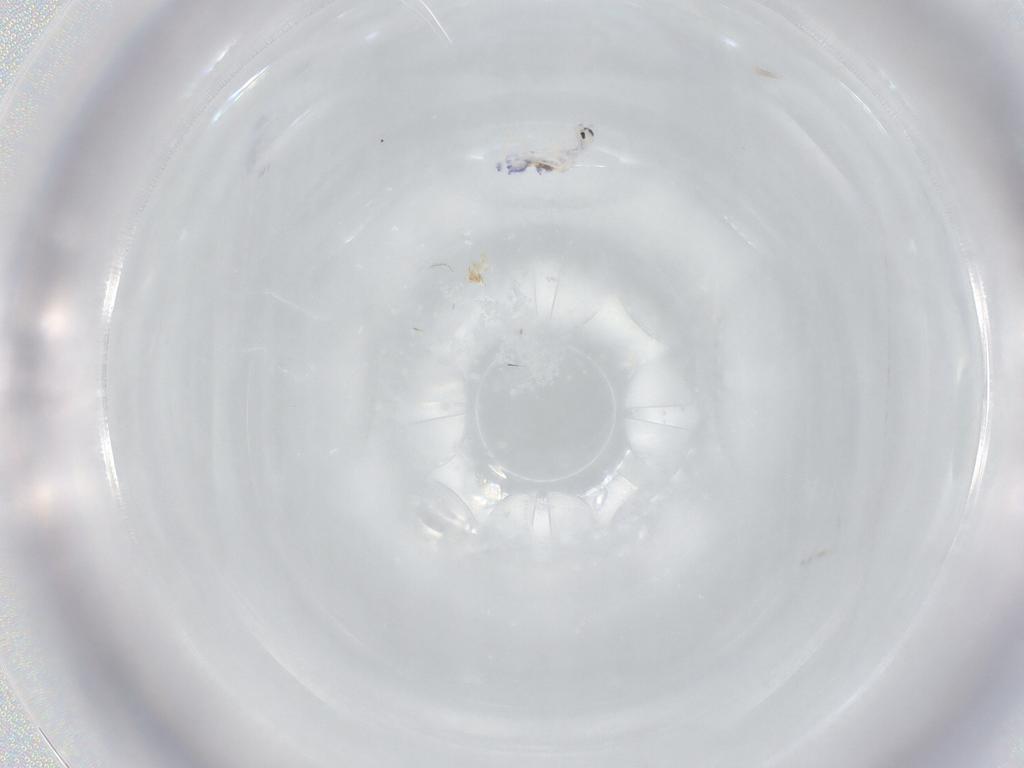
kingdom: Animalia
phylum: Arthropoda
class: Collembola
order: Entomobryomorpha
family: Entomobryidae
